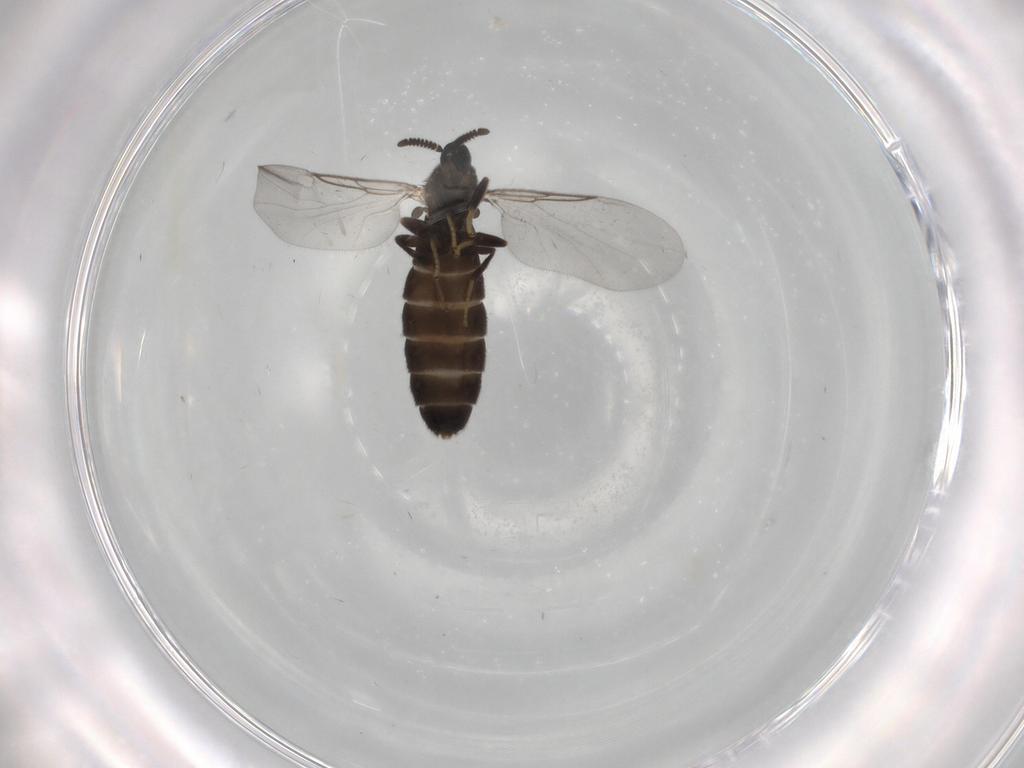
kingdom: Animalia
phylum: Arthropoda
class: Insecta
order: Diptera
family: Scatopsidae
